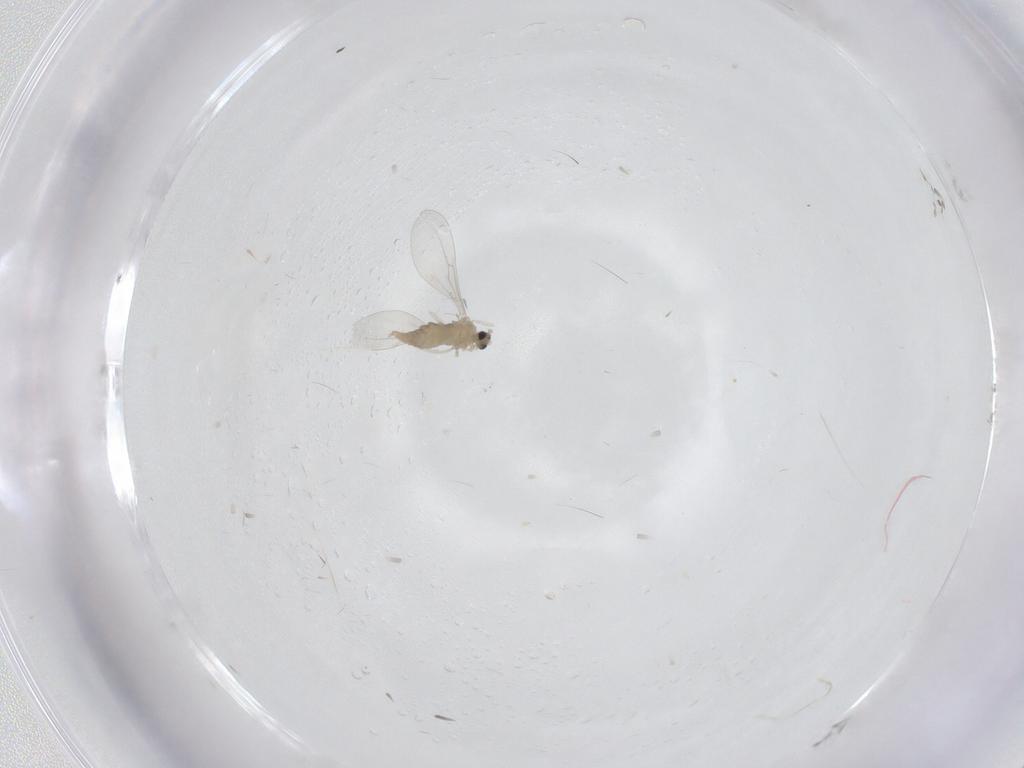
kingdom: Animalia
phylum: Arthropoda
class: Insecta
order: Diptera
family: Cecidomyiidae
